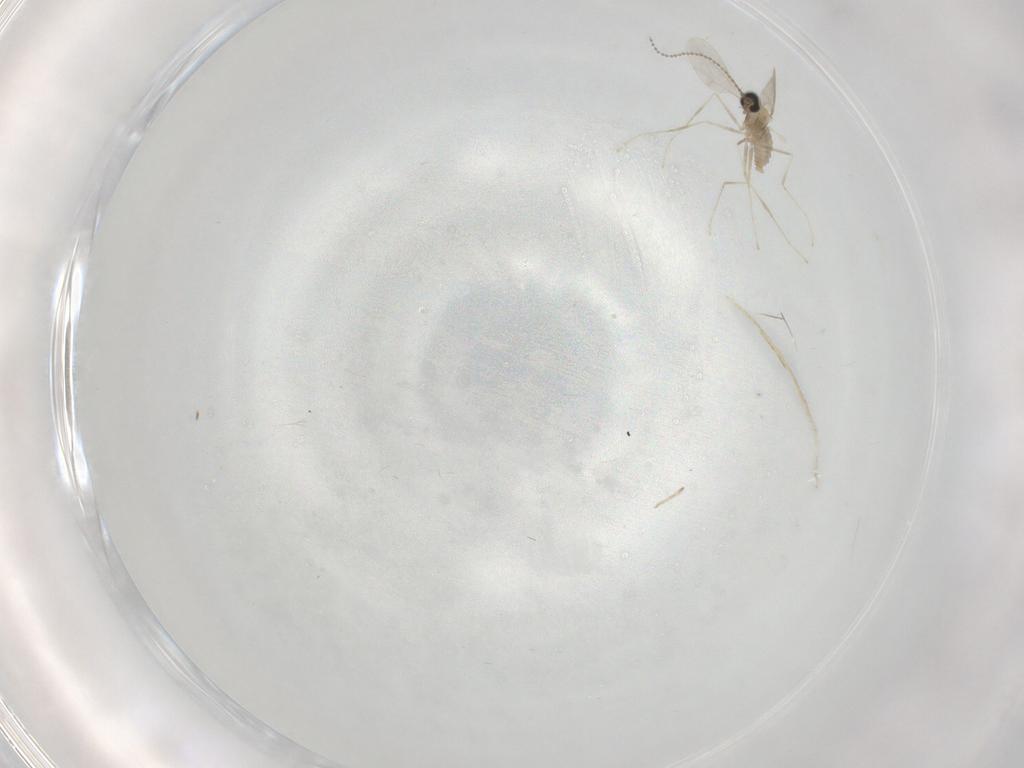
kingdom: Animalia
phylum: Arthropoda
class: Insecta
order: Diptera
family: Cecidomyiidae
